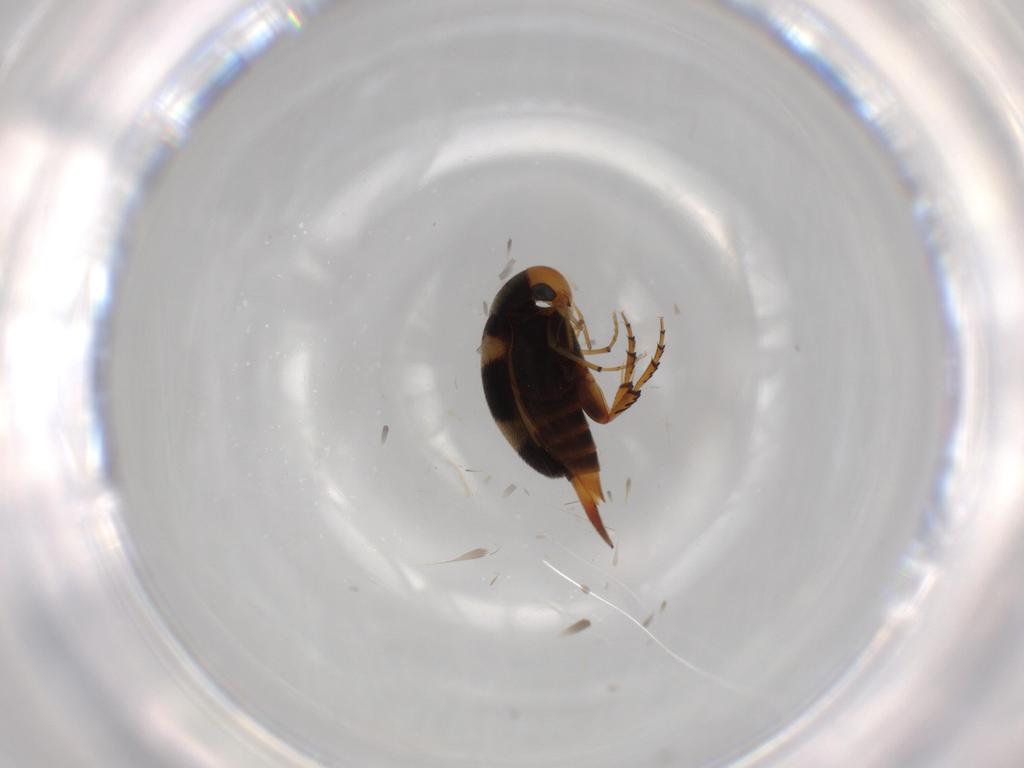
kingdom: Animalia
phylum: Arthropoda
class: Insecta
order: Coleoptera
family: Mordellidae
